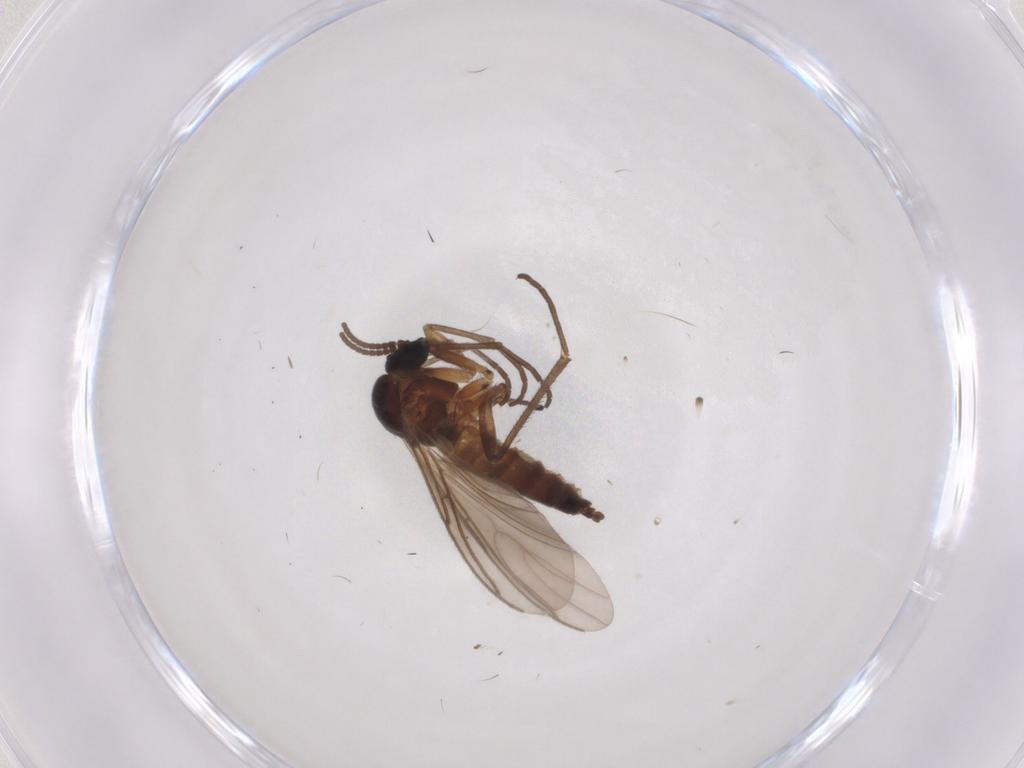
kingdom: Animalia
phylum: Arthropoda
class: Insecta
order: Diptera
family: Sciaridae
